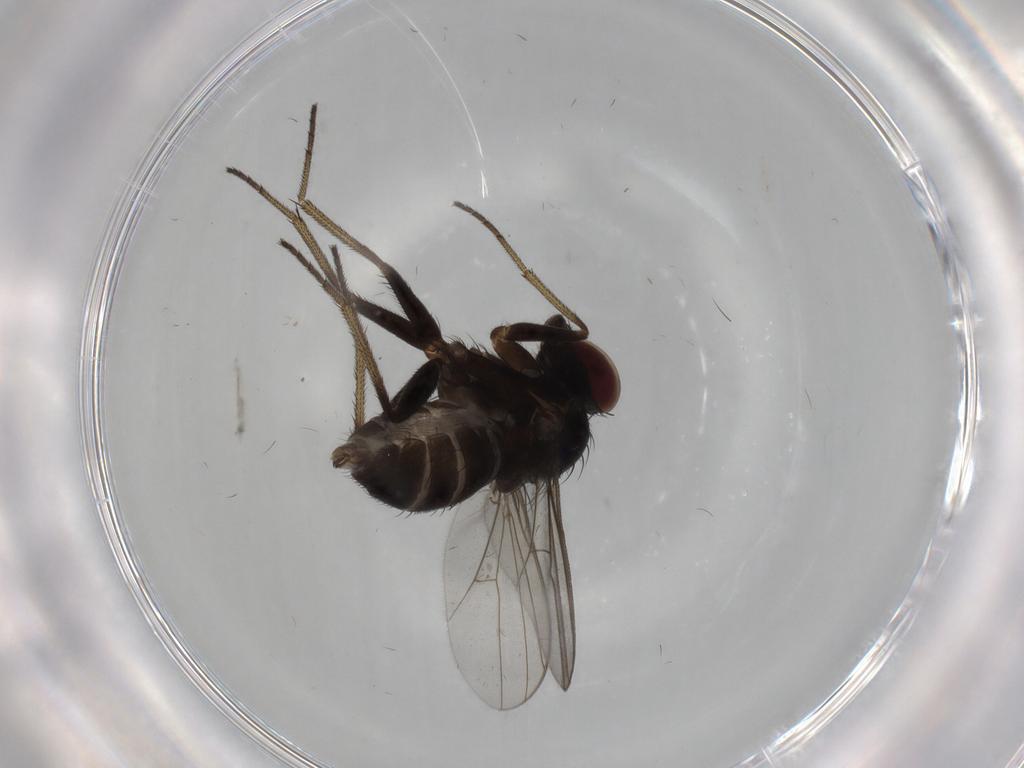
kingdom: Animalia
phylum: Arthropoda
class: Insecta
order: Diptera
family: Dolichopodidae
